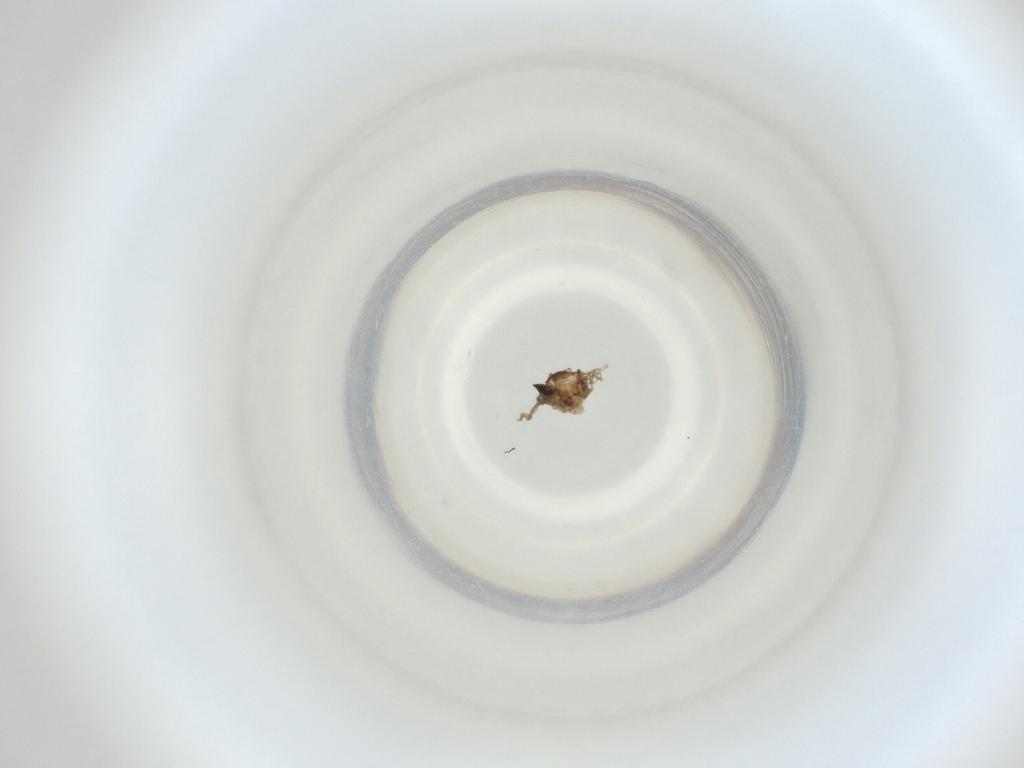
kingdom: Animalia
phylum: Arthropoda
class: Insecta
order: Diptera
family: Cecidomyiidae
